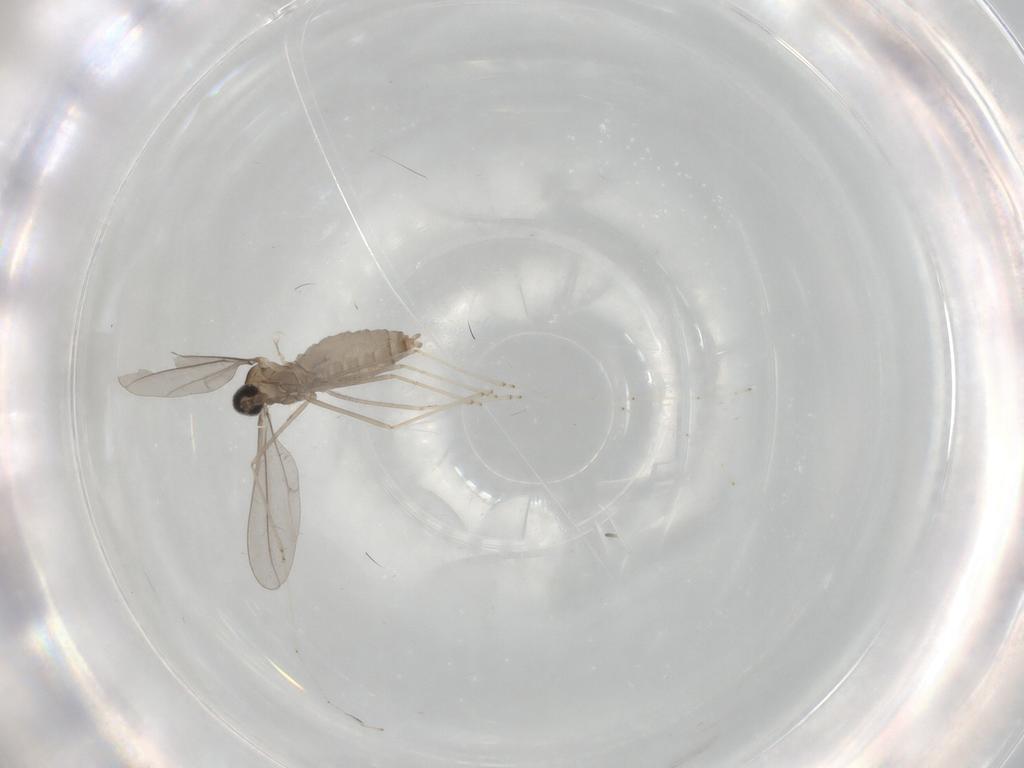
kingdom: Animalia
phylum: Arthropoda
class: Insecta
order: Diptera
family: Cecidomyiidae
